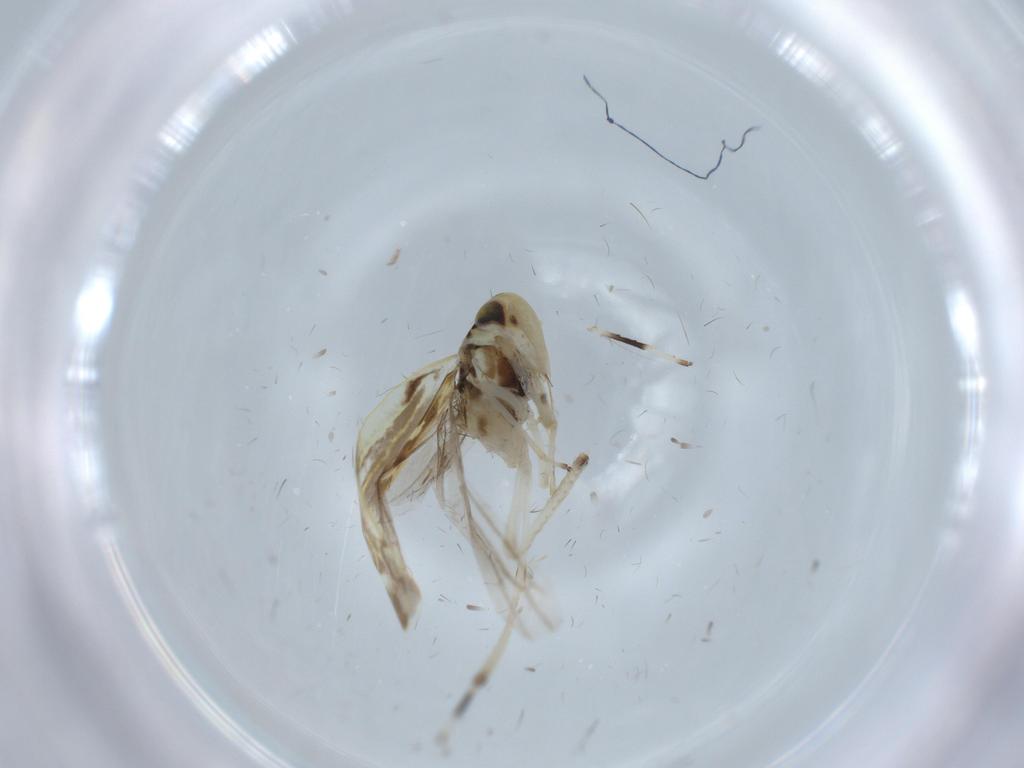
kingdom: Animalia
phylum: Arthropoda
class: Insecta
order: Hemiptera
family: Cicadellidae
